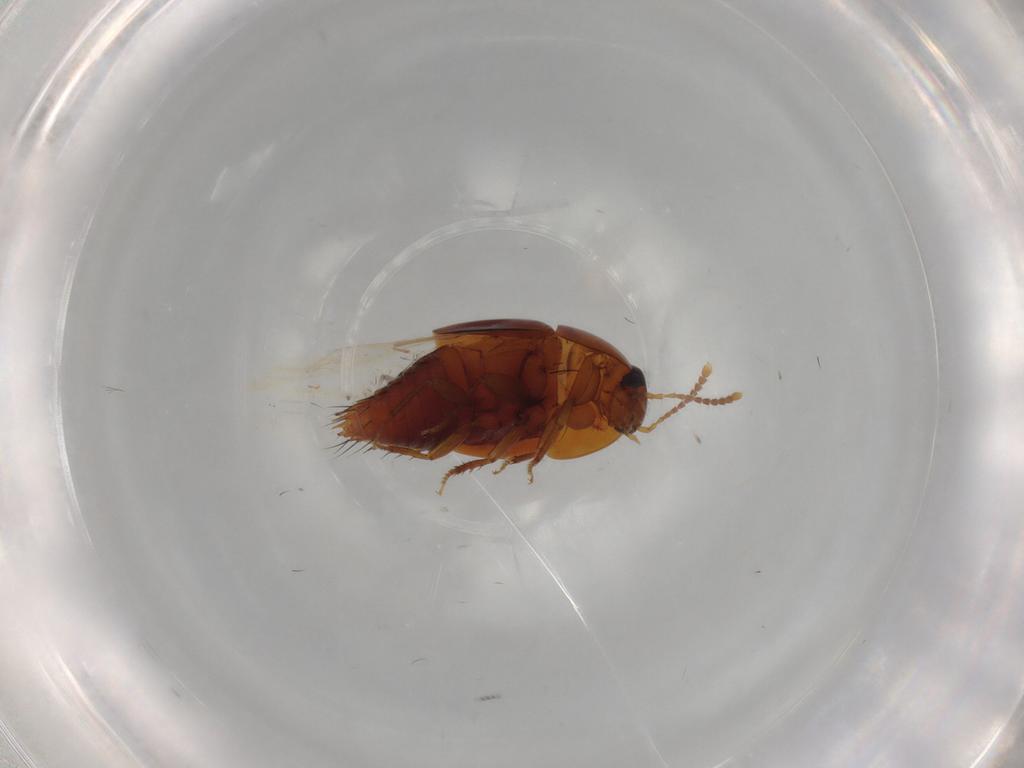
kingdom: Animalia
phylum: Arthropoda
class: Insecta
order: Coleoptera
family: Staphylinidae
